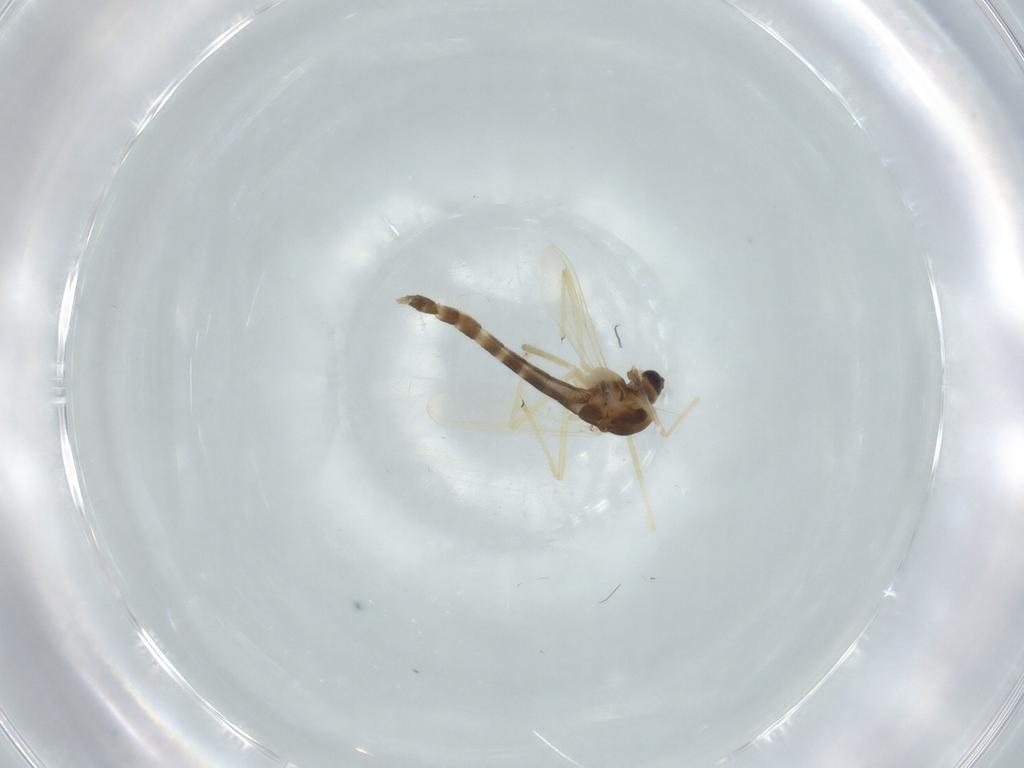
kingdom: Animalia
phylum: Arthropoda
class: Insecta
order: Diptera
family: Chironomidae
